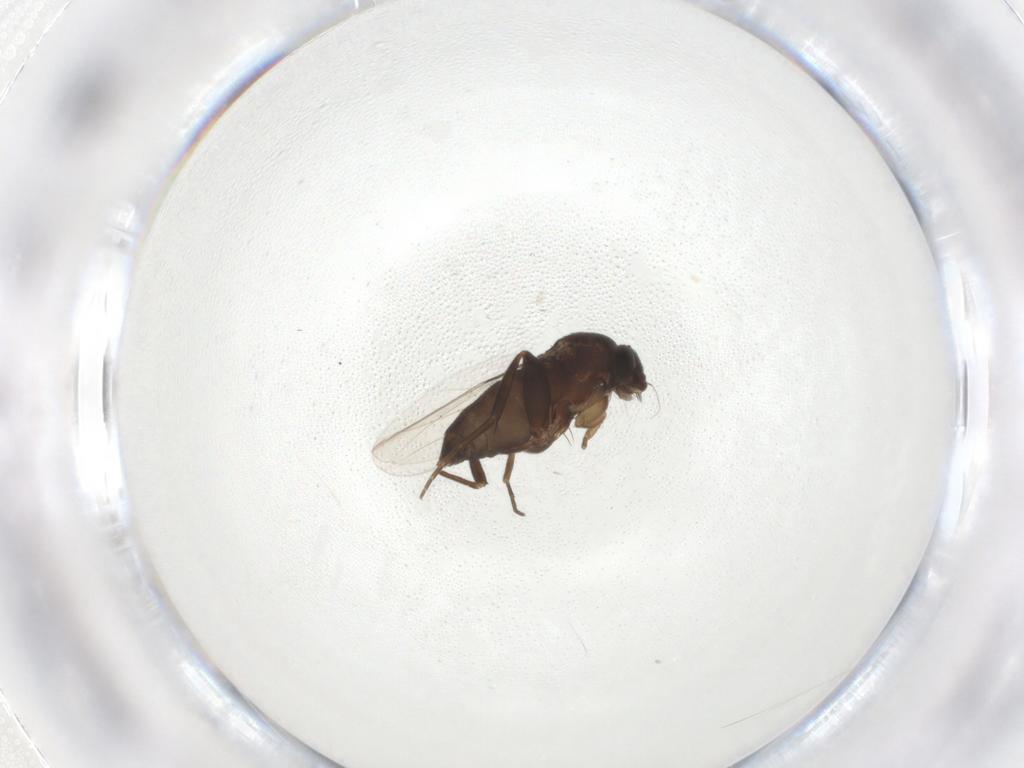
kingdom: Animalia
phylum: Arthropoda
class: Insecta
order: Diptera
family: Phoridae
